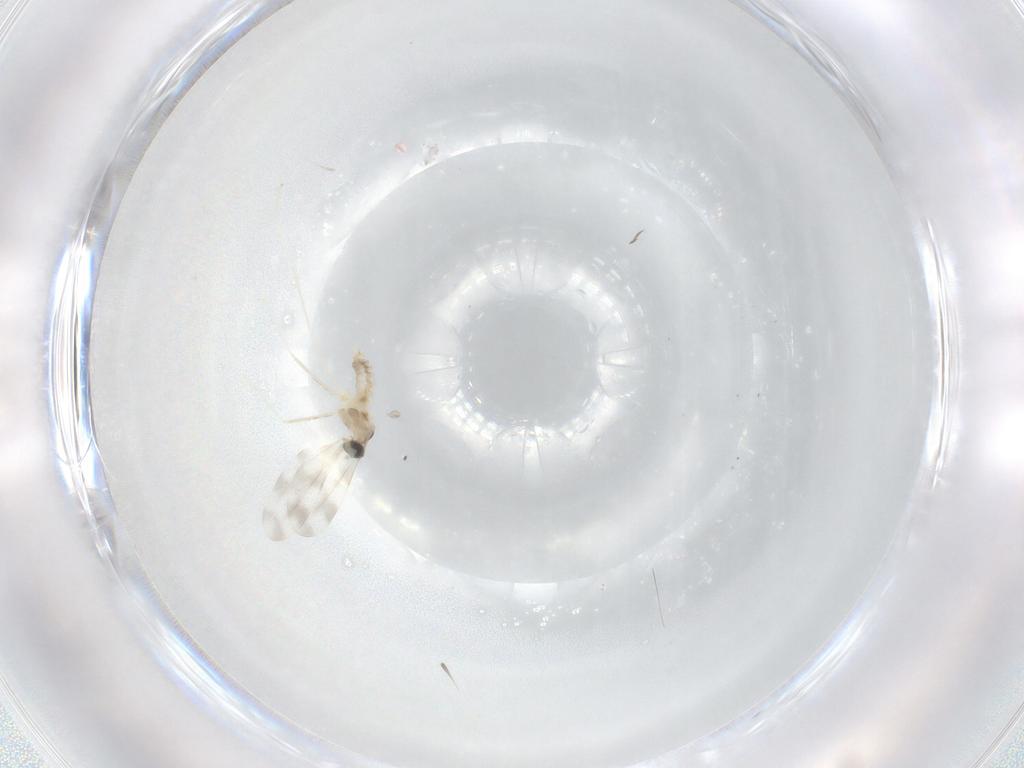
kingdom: Animalia
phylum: Arthropoda
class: Insecta
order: Diptera
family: Cecidomyiidae
